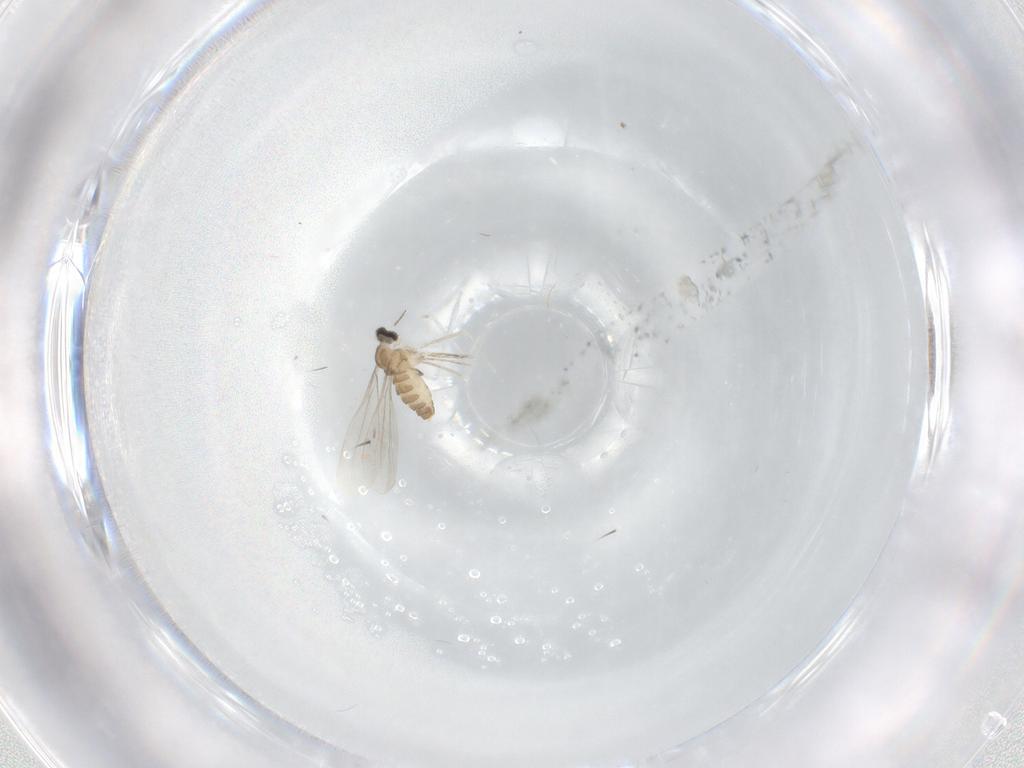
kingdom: Animalia
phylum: Arthropoda
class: Insecta
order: Diptera
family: Cecidomyiidae
